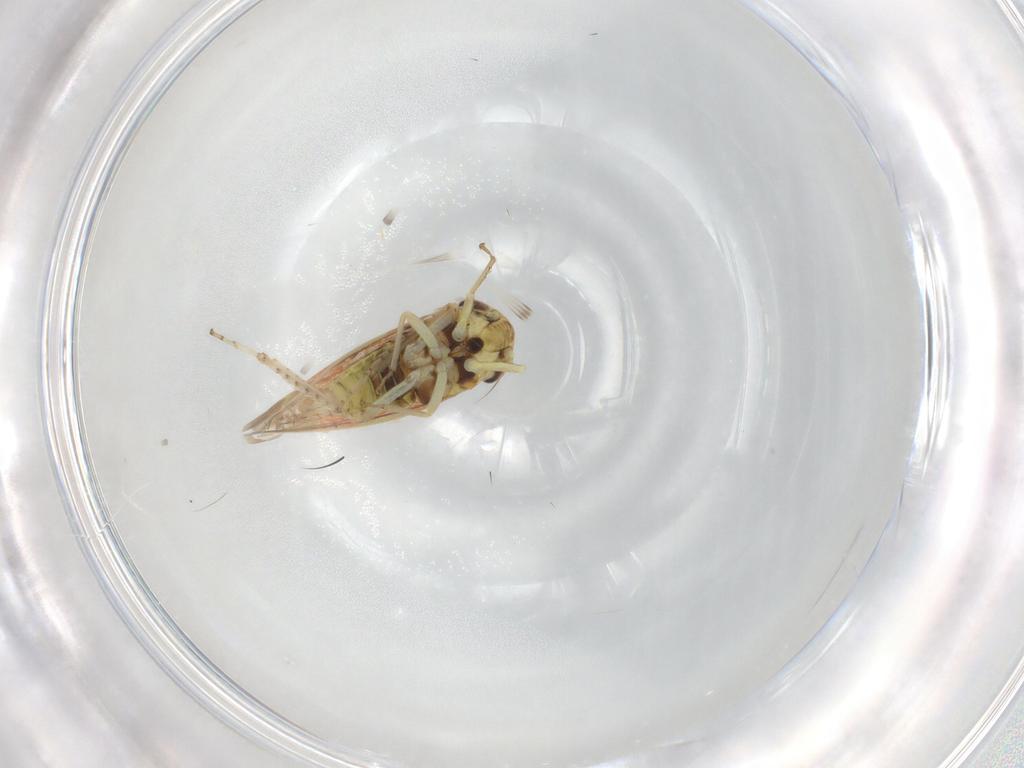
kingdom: Animalia
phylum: Arthropoda
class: Insecta
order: Hemiptera
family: Cicadellidae
